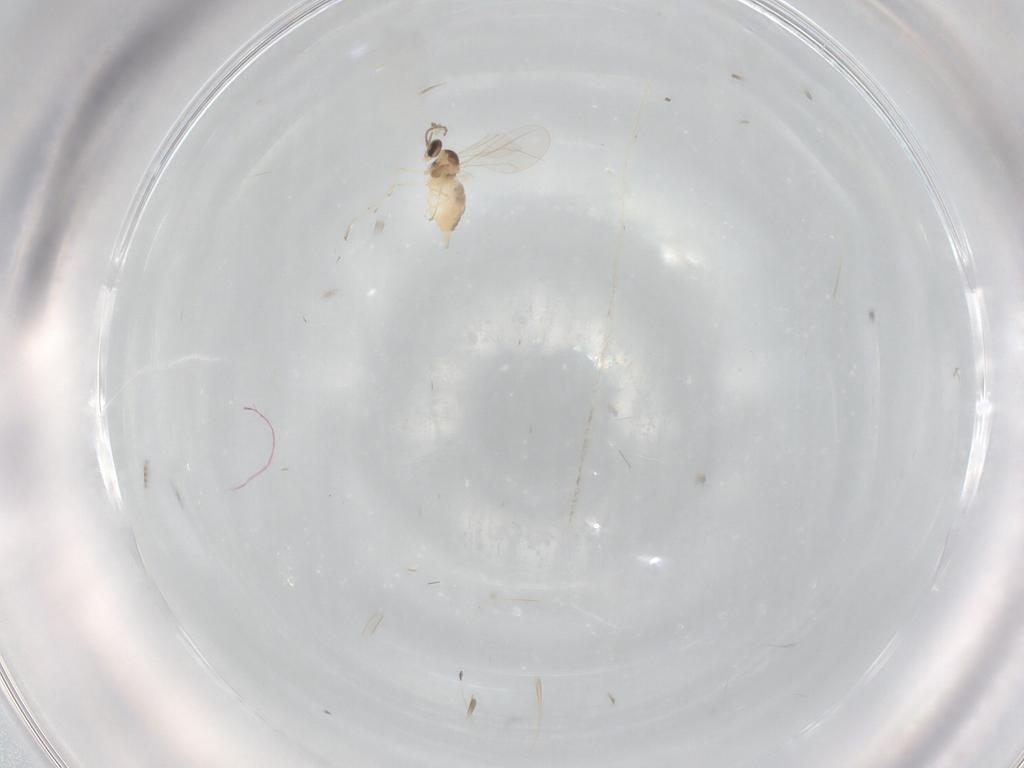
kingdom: Animalia
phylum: Arthropoda
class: Insecta
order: Diptera
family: Cecidomyiidae
